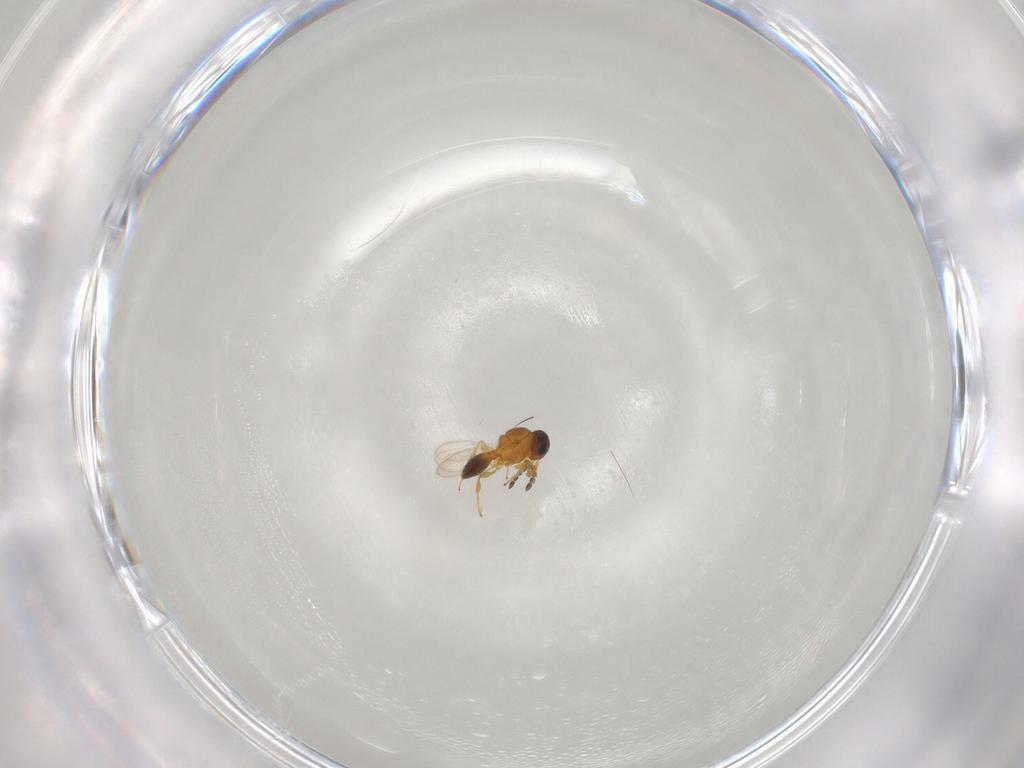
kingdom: Animalia
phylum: Arthropoda
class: Insecta
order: Hymenoptera
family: Platygastridae
